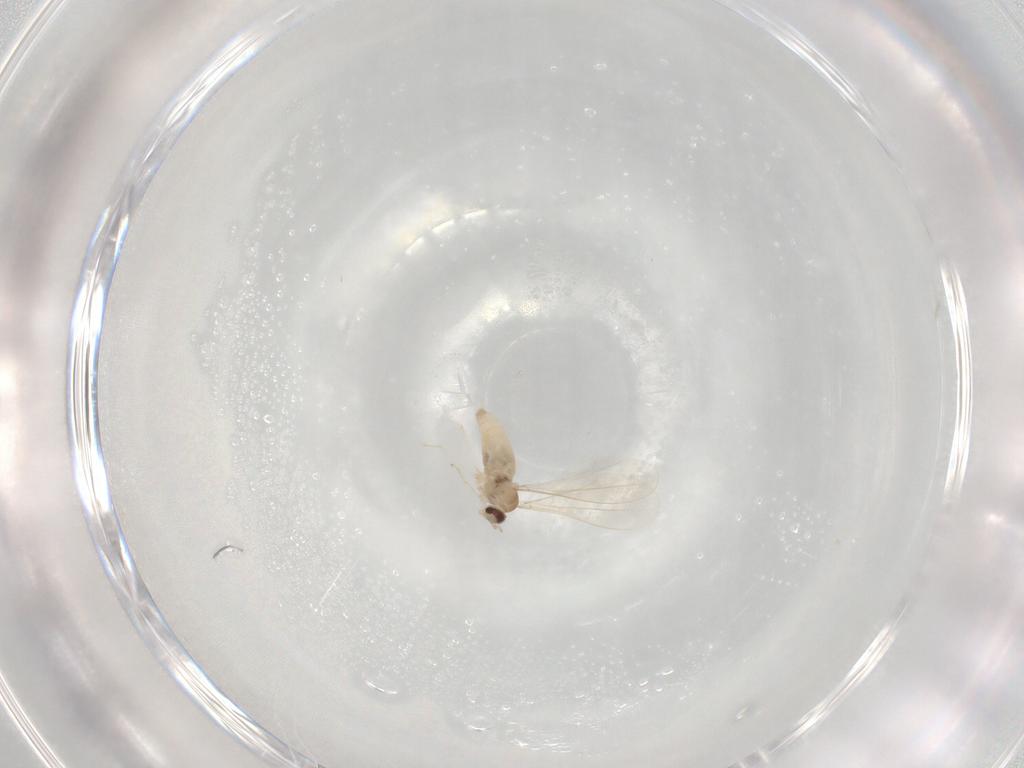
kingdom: Animalia
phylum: Arthropoda
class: Insecta
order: Diptera
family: Cecidomyiidae
